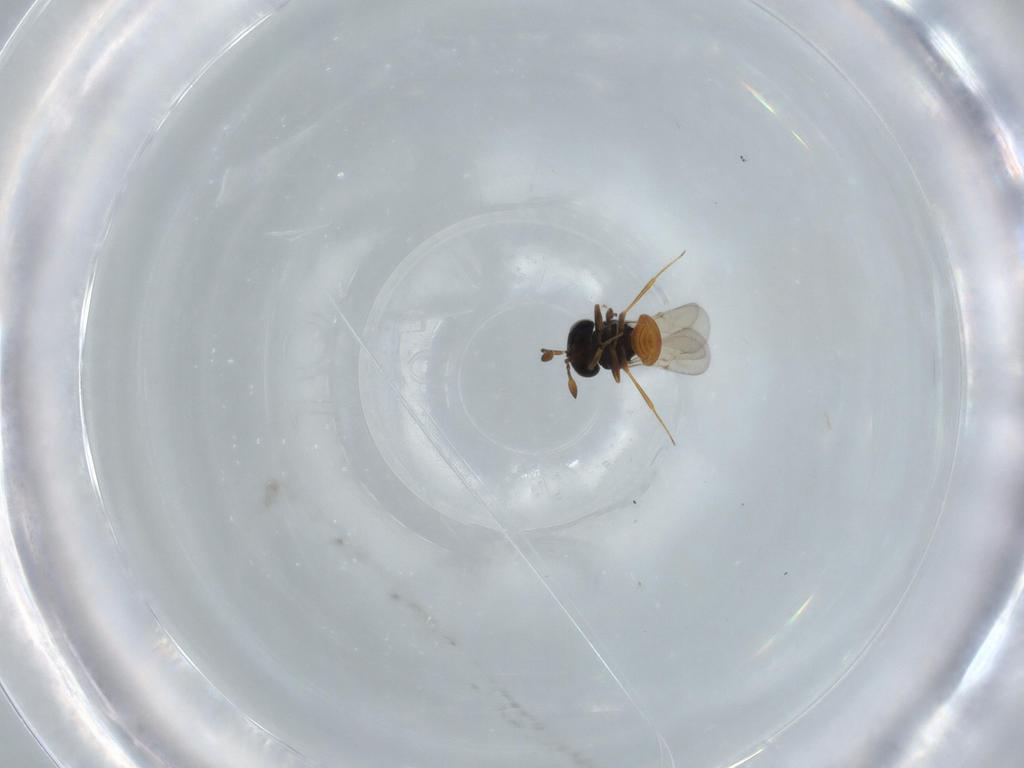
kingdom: Animalia
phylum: Arthropoda
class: Insecta
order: Hymenoptera
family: Scelionidae
